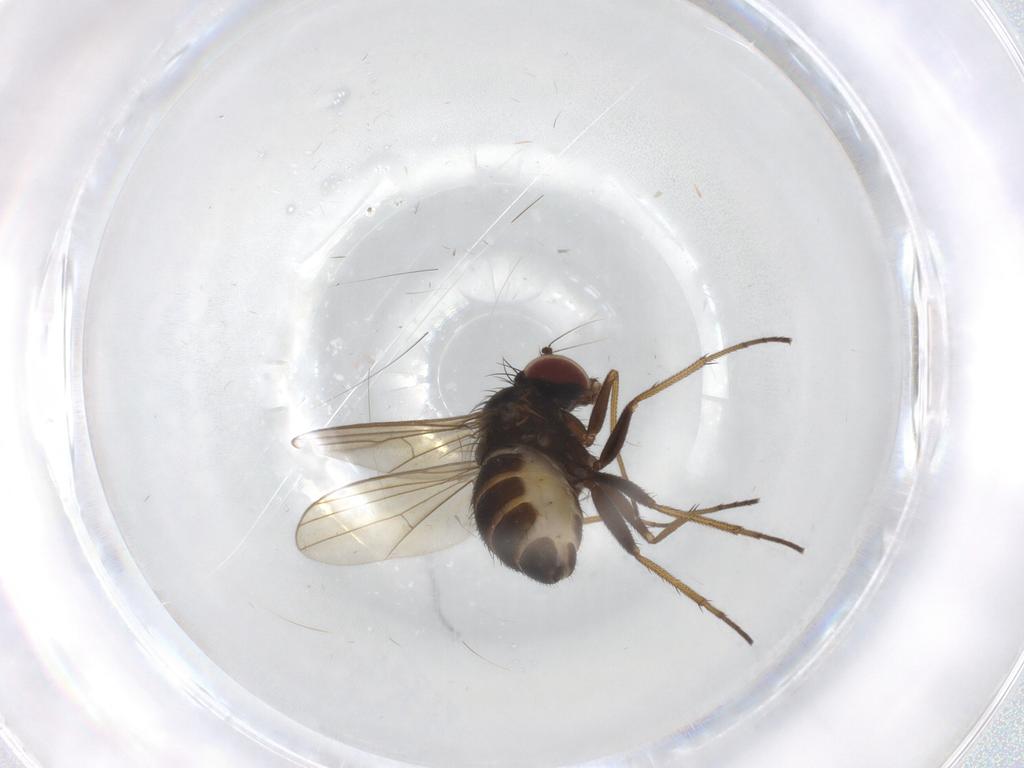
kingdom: Animalia
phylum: Arthropoda
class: Insecta
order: Diptera
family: Dolichopodidae
